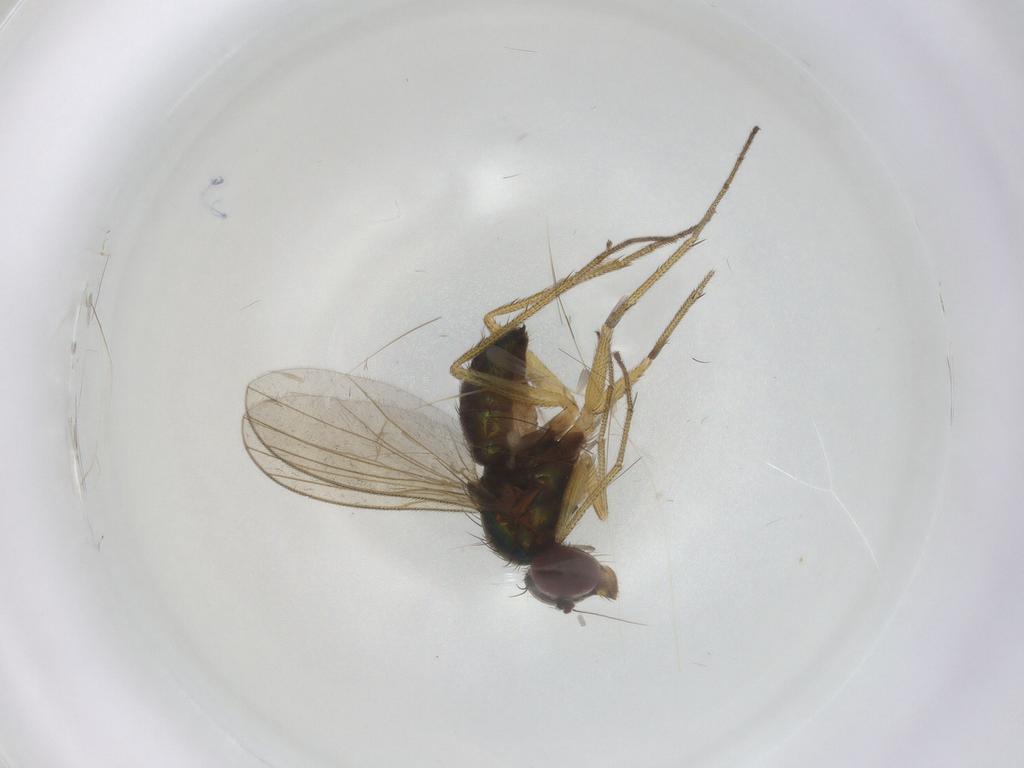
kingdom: Animalia
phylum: Arthropoda
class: Insecta
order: Diptera
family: Dolichopodidae
